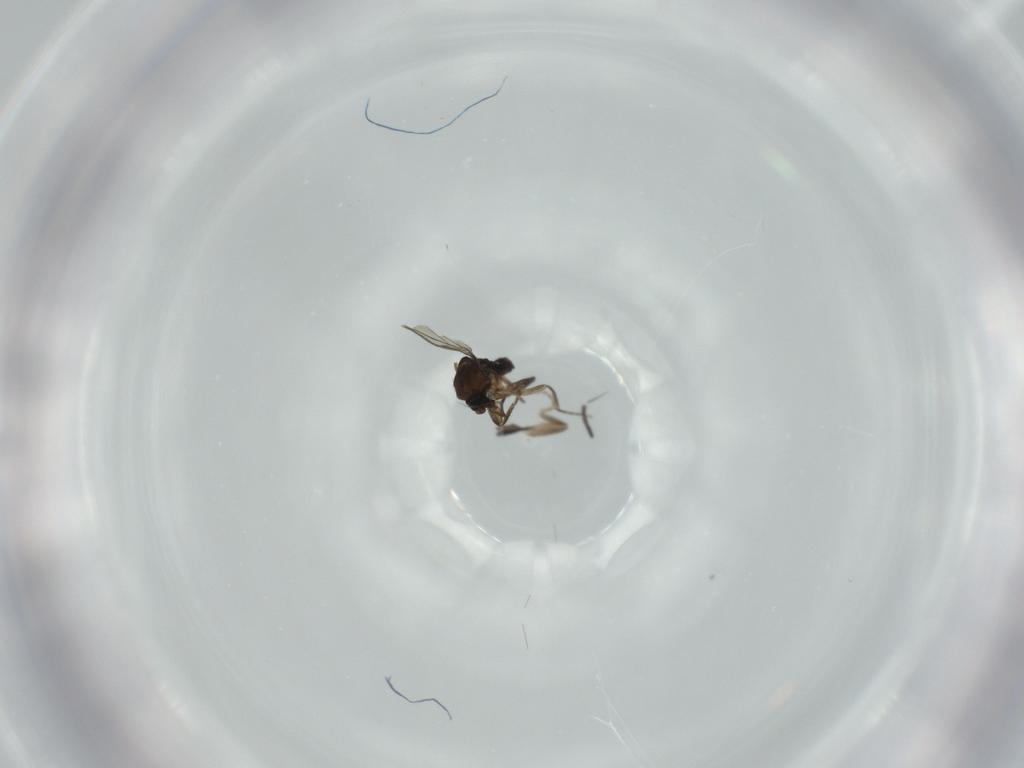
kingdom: Animalia
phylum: Arthropoda
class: Insecta
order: Diptera
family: Phoridae
